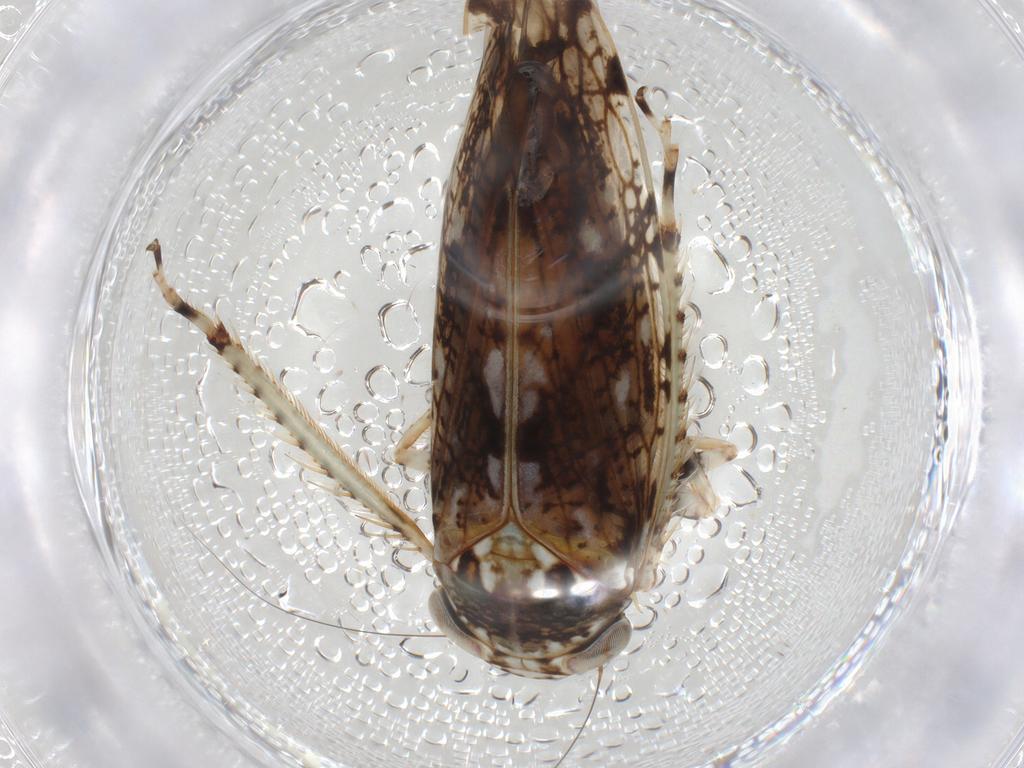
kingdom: Animalia
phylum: Arthropoda
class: Insecta
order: Hemiptera
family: Cicadellidae
